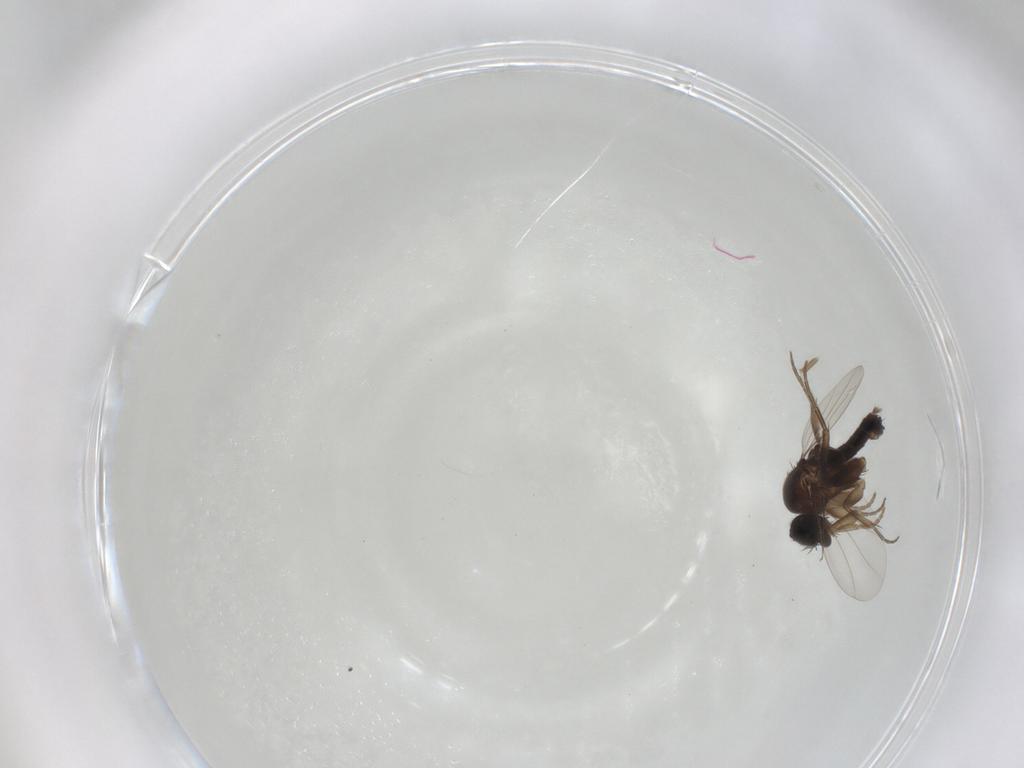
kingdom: Animalia
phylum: Arthropoda
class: Insecta
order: Diptera
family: Phoridae
